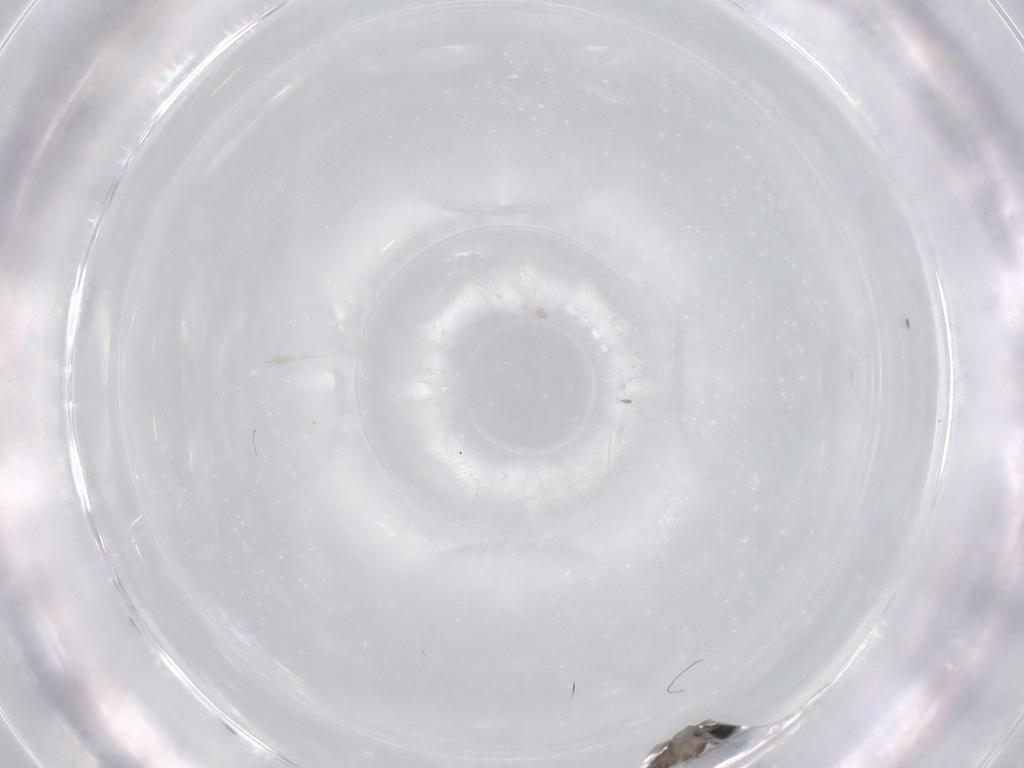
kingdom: Animalia
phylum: Arthropoda
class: Insecta
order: Diptera
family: Cecidomyiidae
